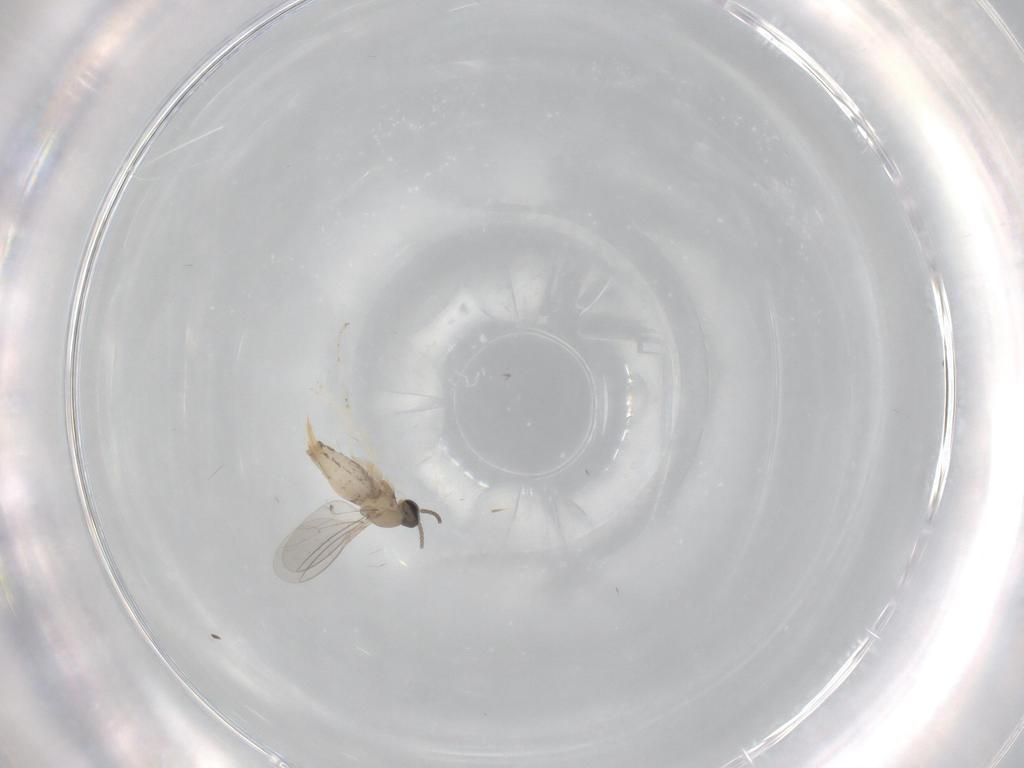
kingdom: Animalia
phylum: Arthropoda
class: Insecta
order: Diptera
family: Cecidomyiidae
